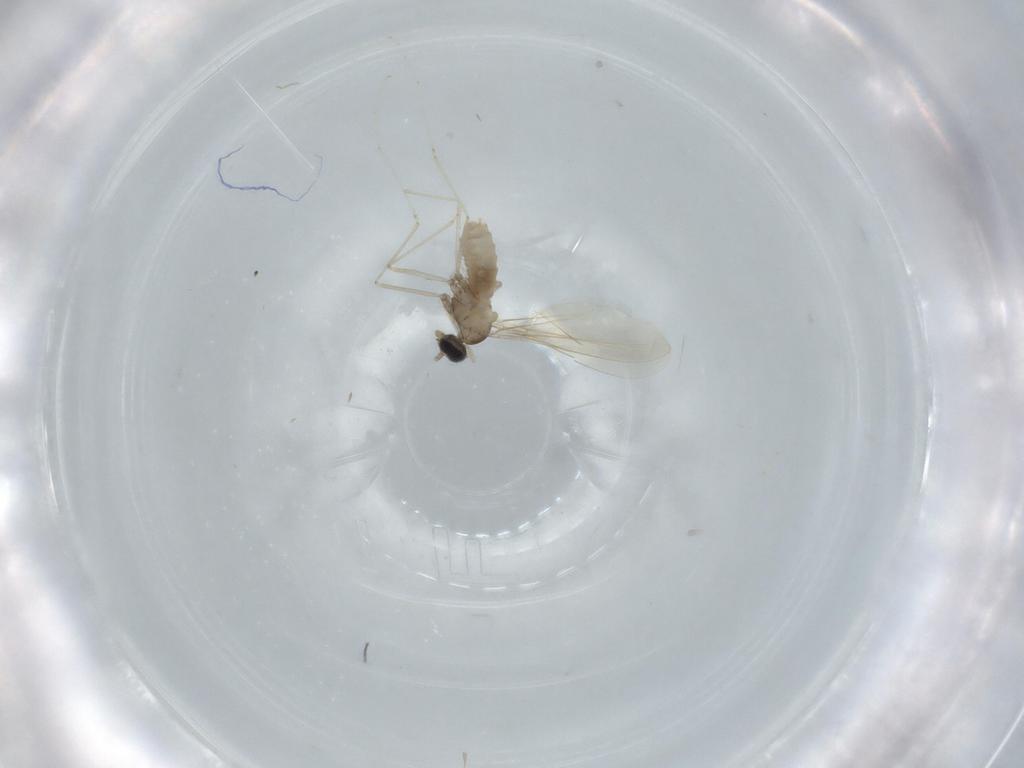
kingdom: Animalia
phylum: Arthropoda
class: Insecta
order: Diptera
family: Cecidomyiidae
